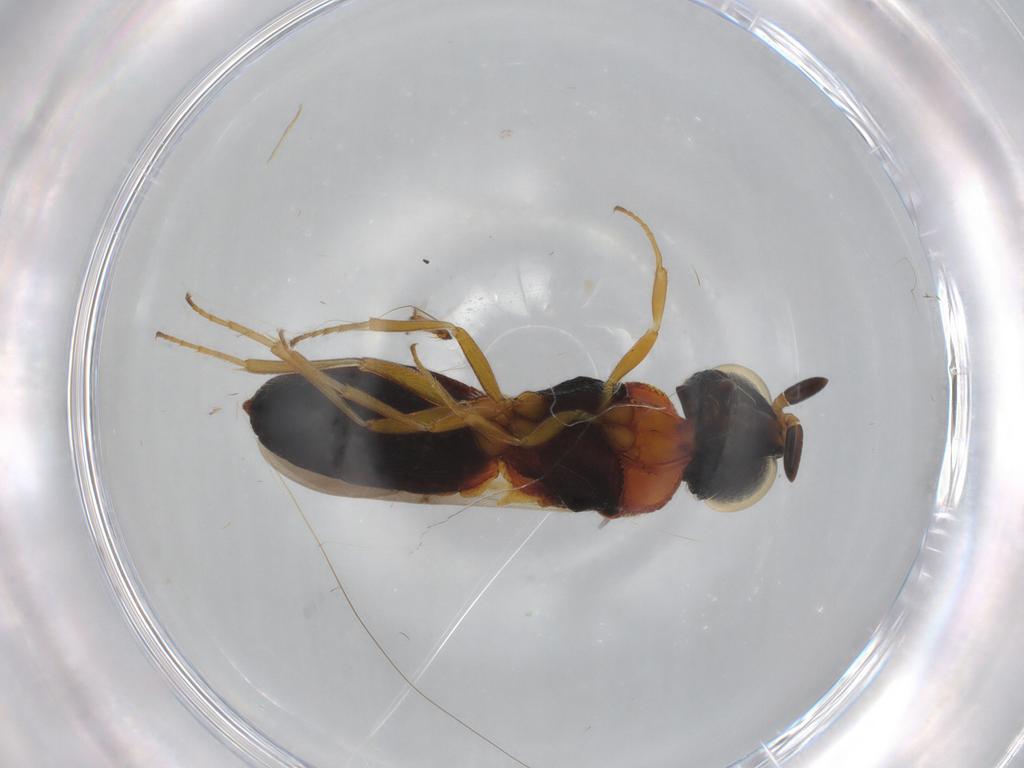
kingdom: Animalia
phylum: Arthropoda
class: Insecta
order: Hymenoptera
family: Apidae
